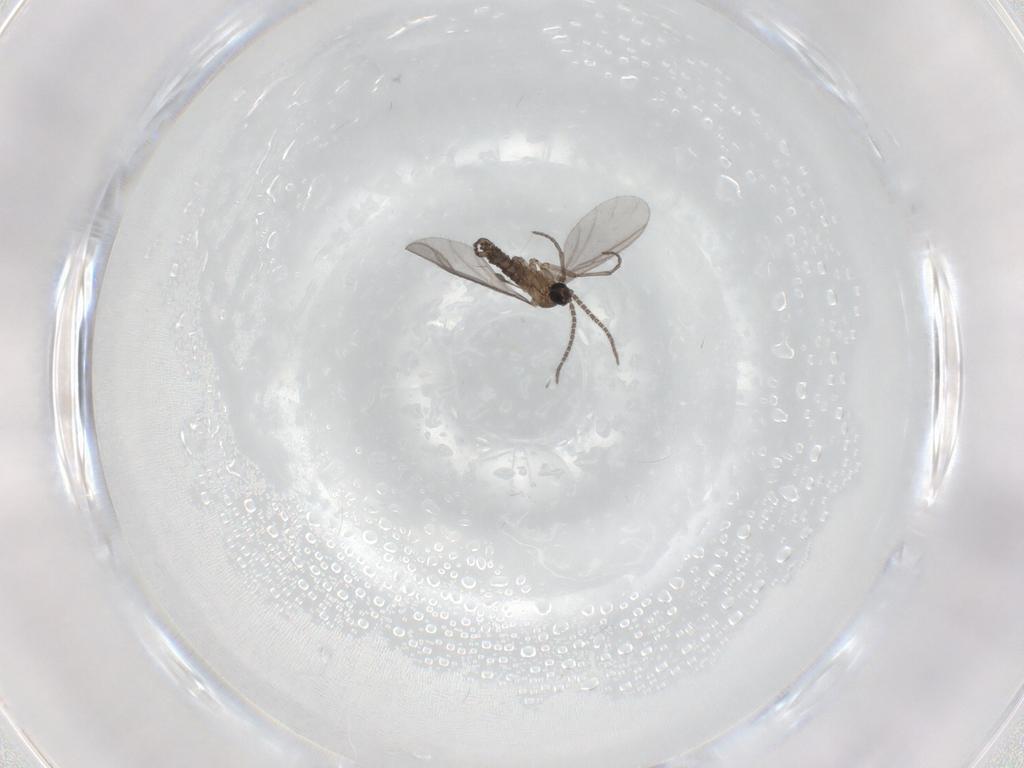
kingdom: Animalia
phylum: Arthropoda
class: Insecta
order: Diptera
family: Sciaridae
